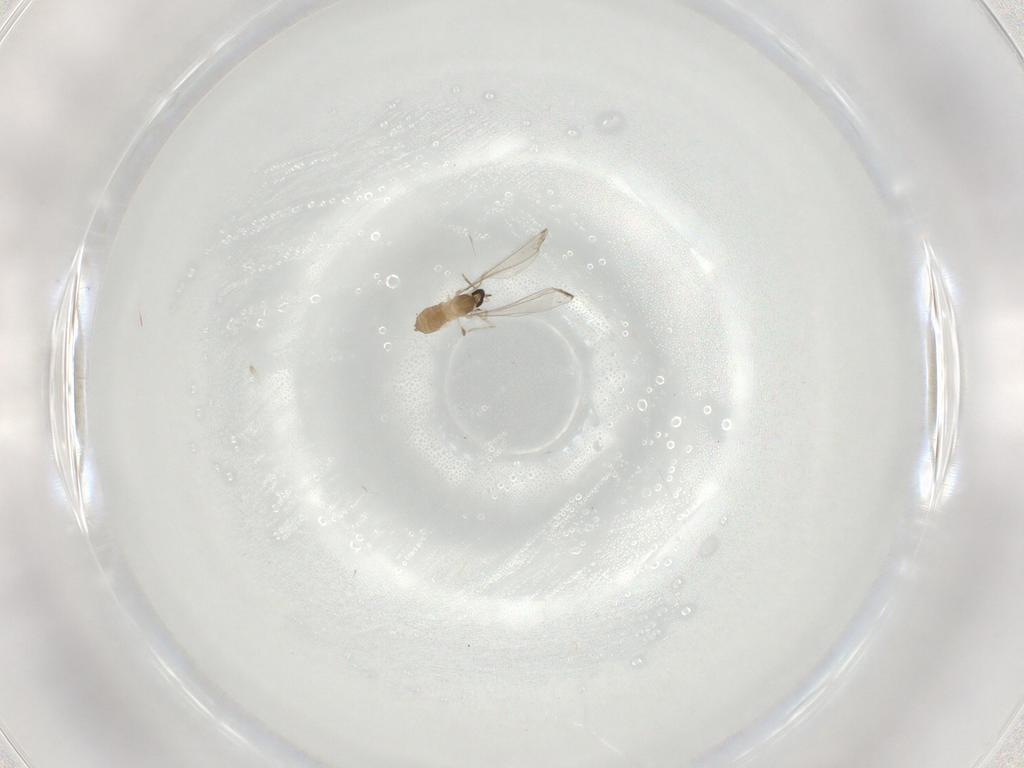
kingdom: Animalia
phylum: Arthropoda
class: Insecta
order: Diptera
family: Cecidomyiidae
